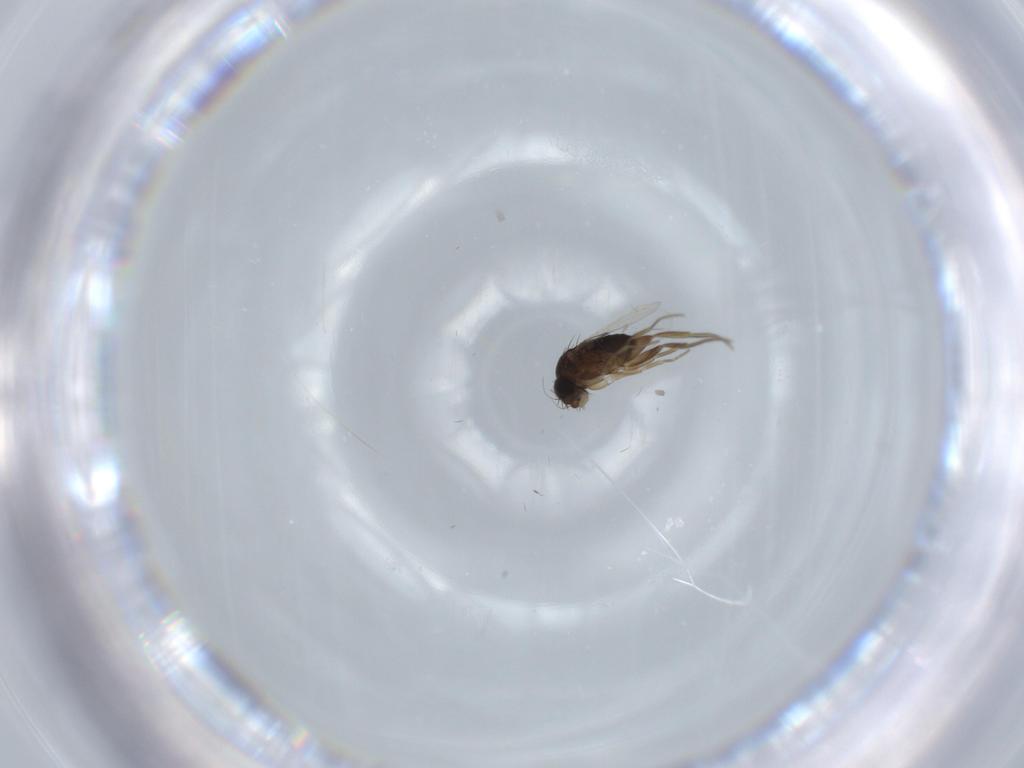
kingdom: Animalia
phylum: Arthropoda
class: Insecta
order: Diptera
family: Phoridae
